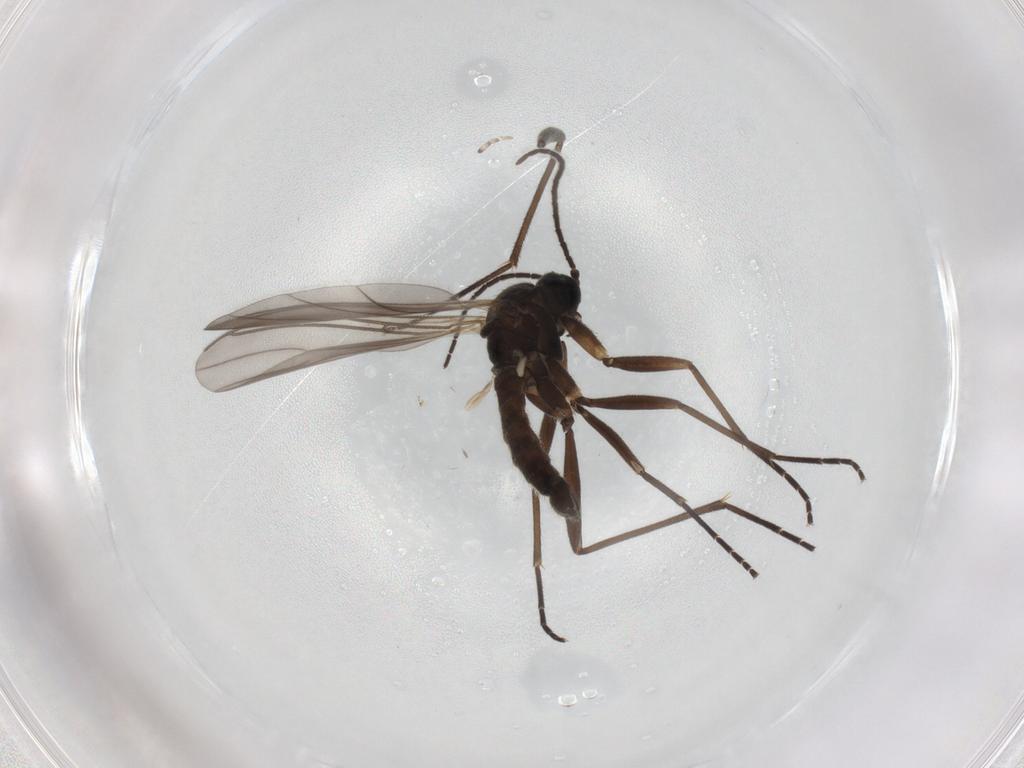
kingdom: Animalia
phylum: Arthropoda
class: Insecta
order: Diptera
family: Sciaridae
